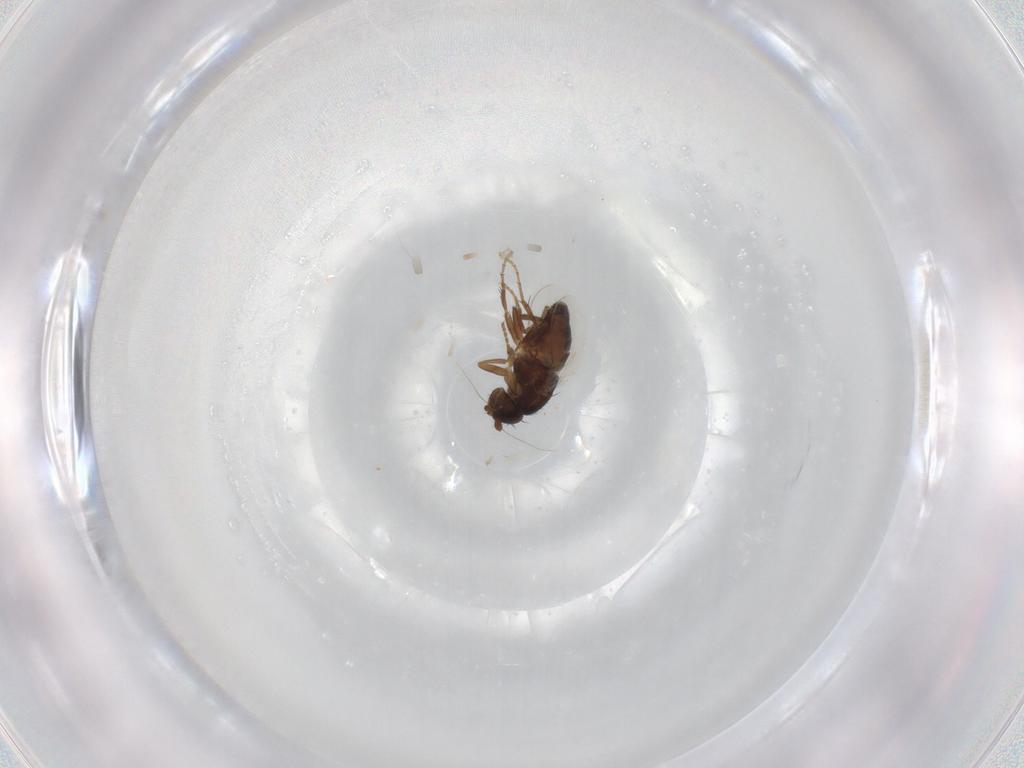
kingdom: Animalia
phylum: Arthropoda
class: Insecta
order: Diptera
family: Sphaeroceridae
